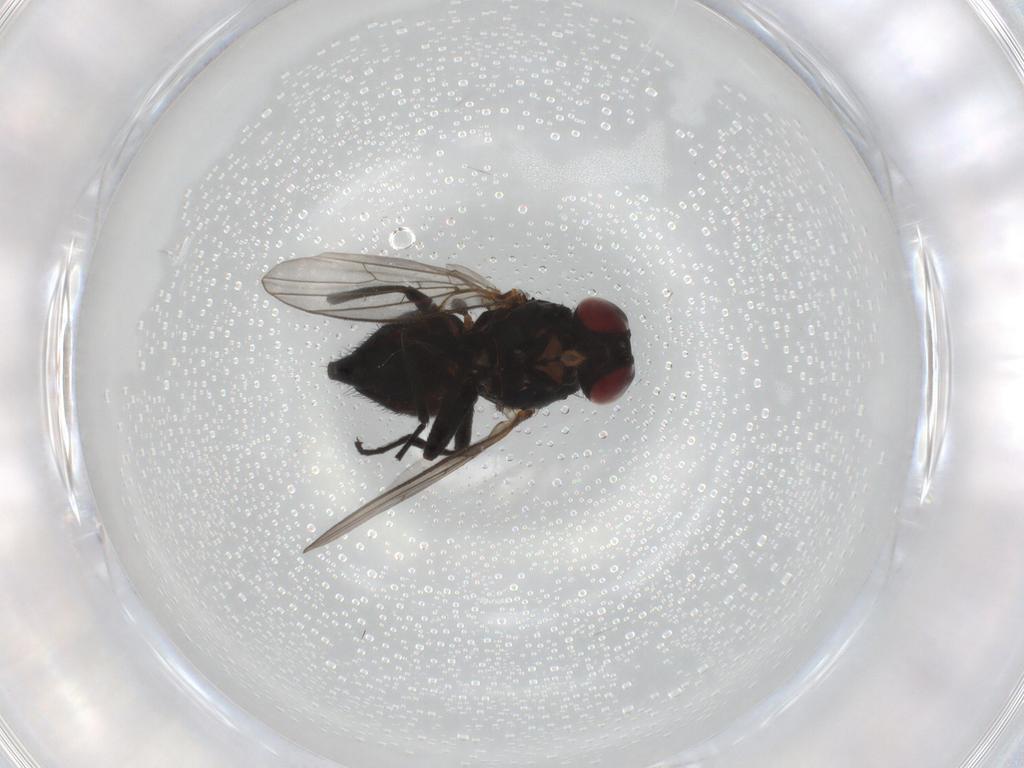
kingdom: Animalia
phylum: Arthropoda
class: Insecta
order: Diptera
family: Agromyzidae
